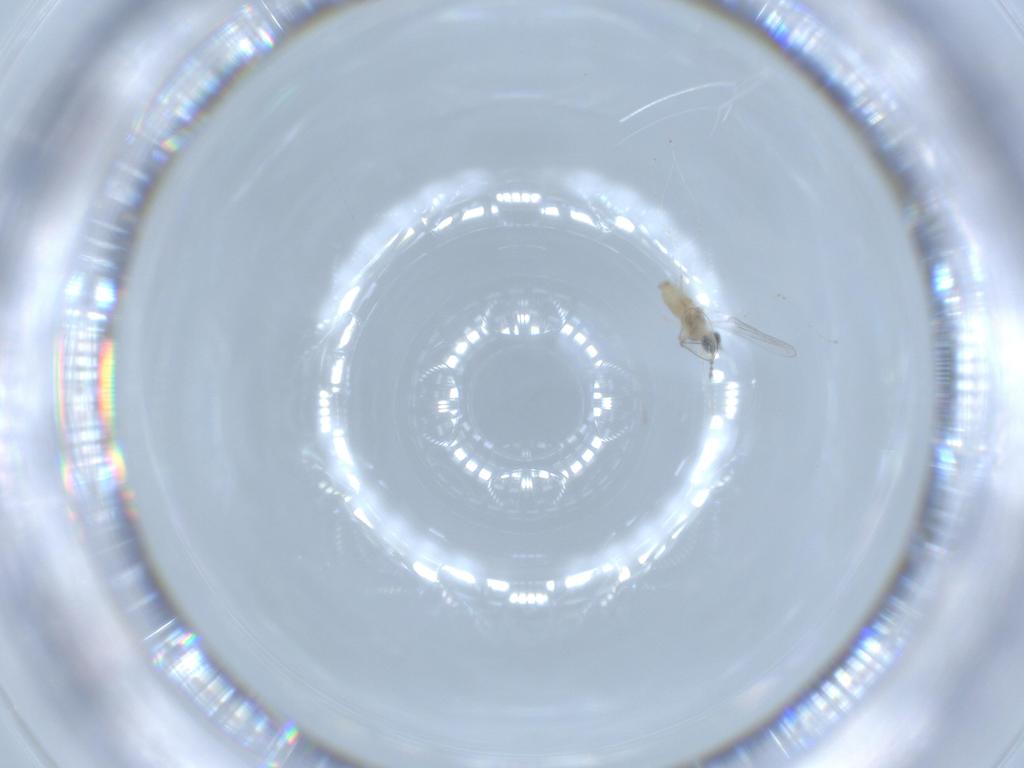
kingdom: Animalia
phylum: Arthropoda
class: Insecta
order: Diptera
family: Cecidomyiidae
